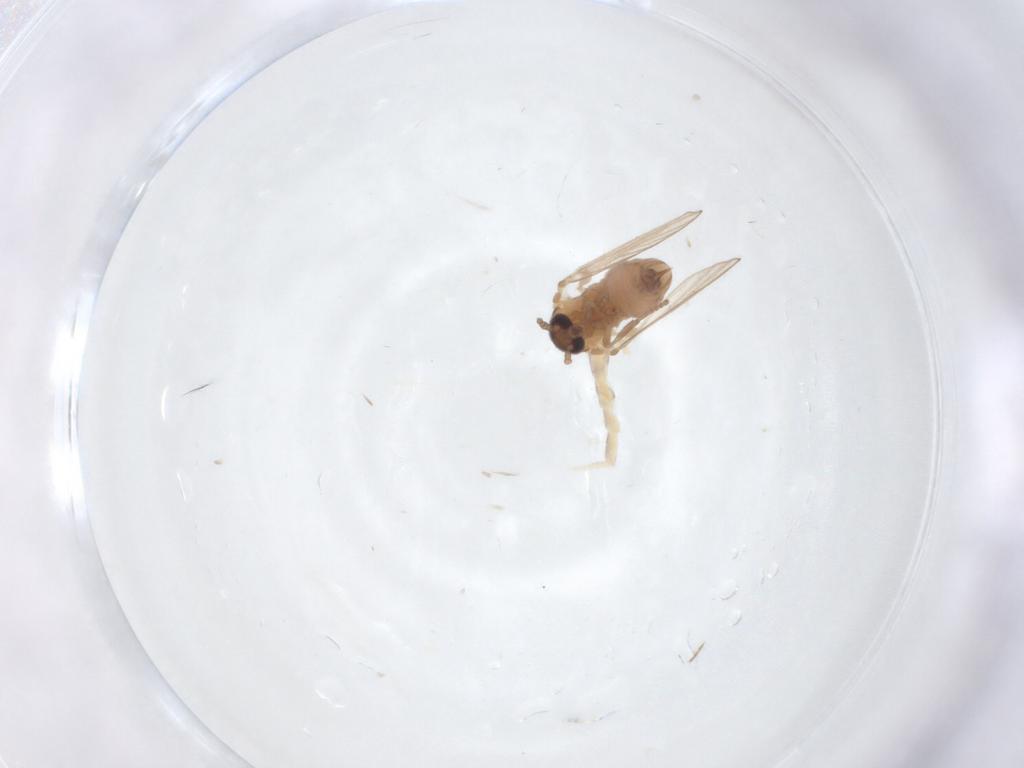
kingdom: Animalia
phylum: Arthropoda
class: Insecta
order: Diptera
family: Psychodidae
